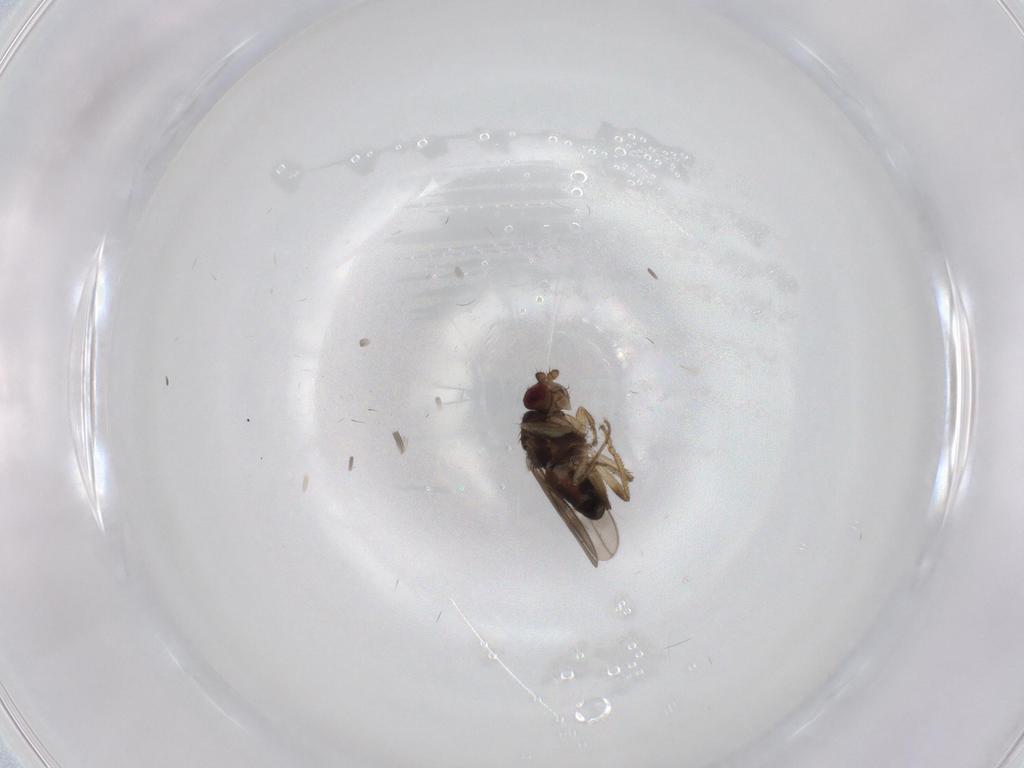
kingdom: Animalia
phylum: Arthropoda
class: Insecta
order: Diptera
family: Sphaeroceridae
